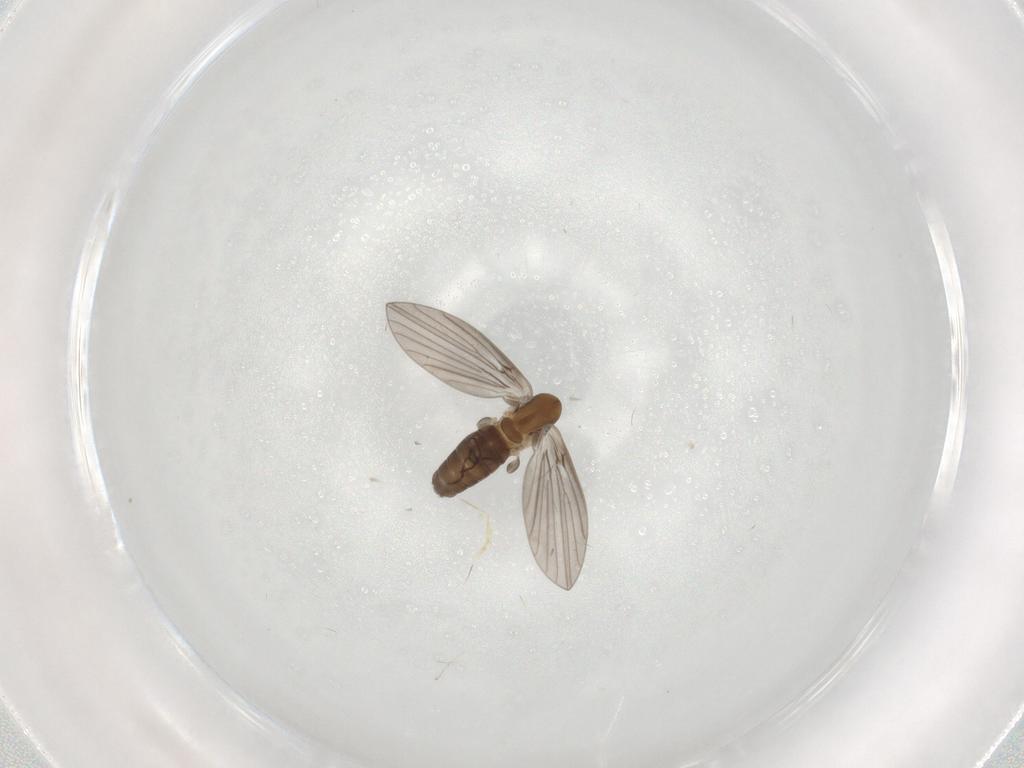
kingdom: Animalia
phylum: Arthropoda
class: Insecta
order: Diptera
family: Psychodidae
